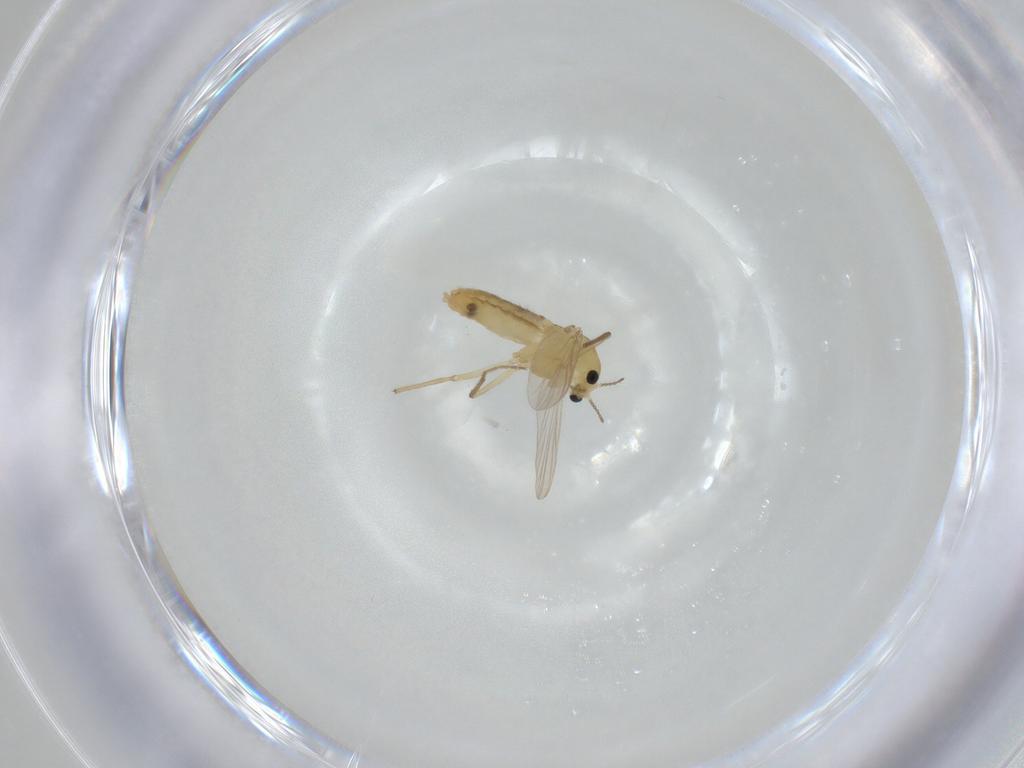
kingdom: Animalia
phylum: Arthropoda
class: Insecta
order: Diptera
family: Chironomidae
